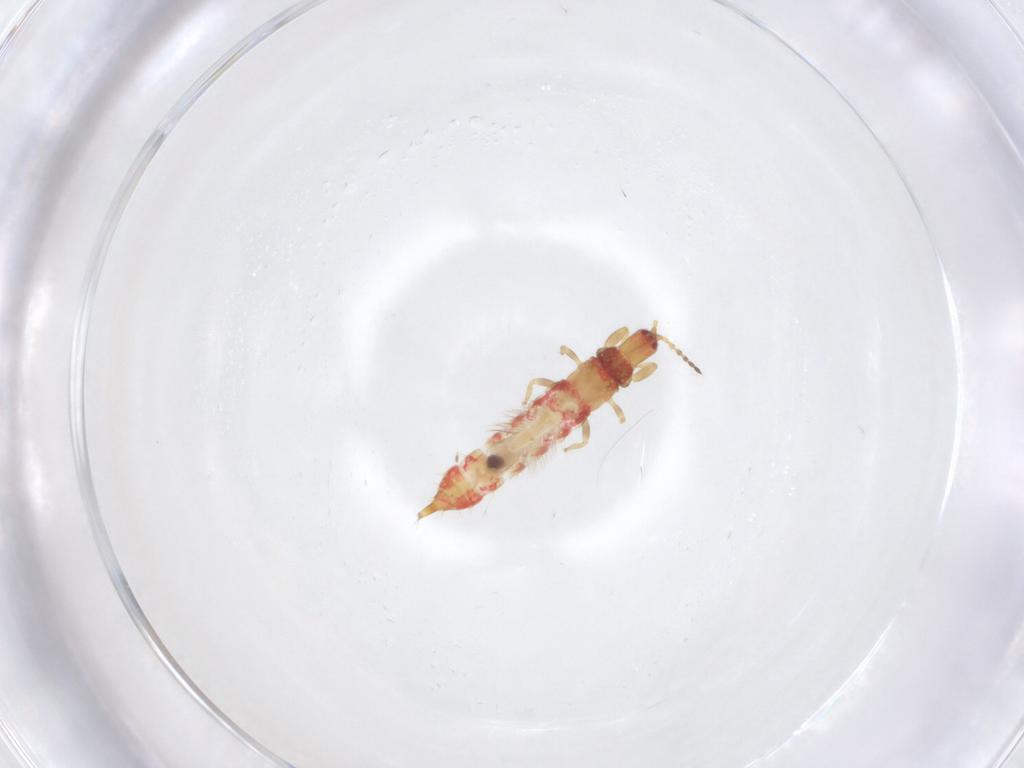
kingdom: Animalia
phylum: Arthropoda
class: Insecta
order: Thysanoptera
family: Phlaeothripidae
